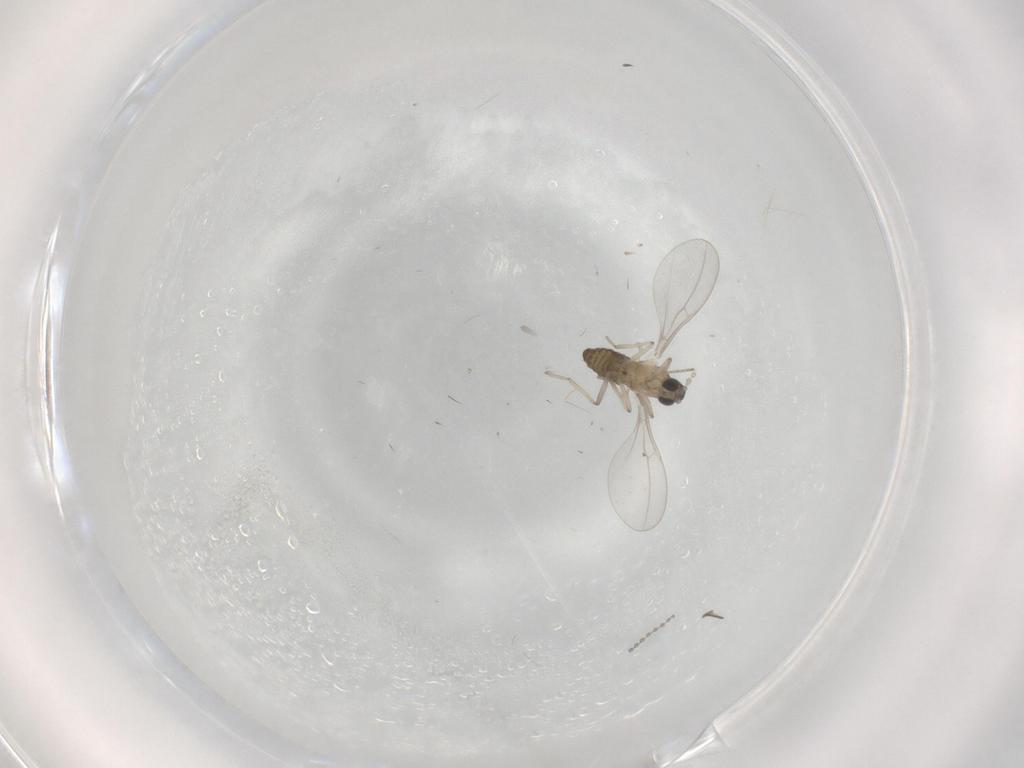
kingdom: Animalia
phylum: Arthropoda
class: Insecta
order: Diptera
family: Cecidomyiidae
